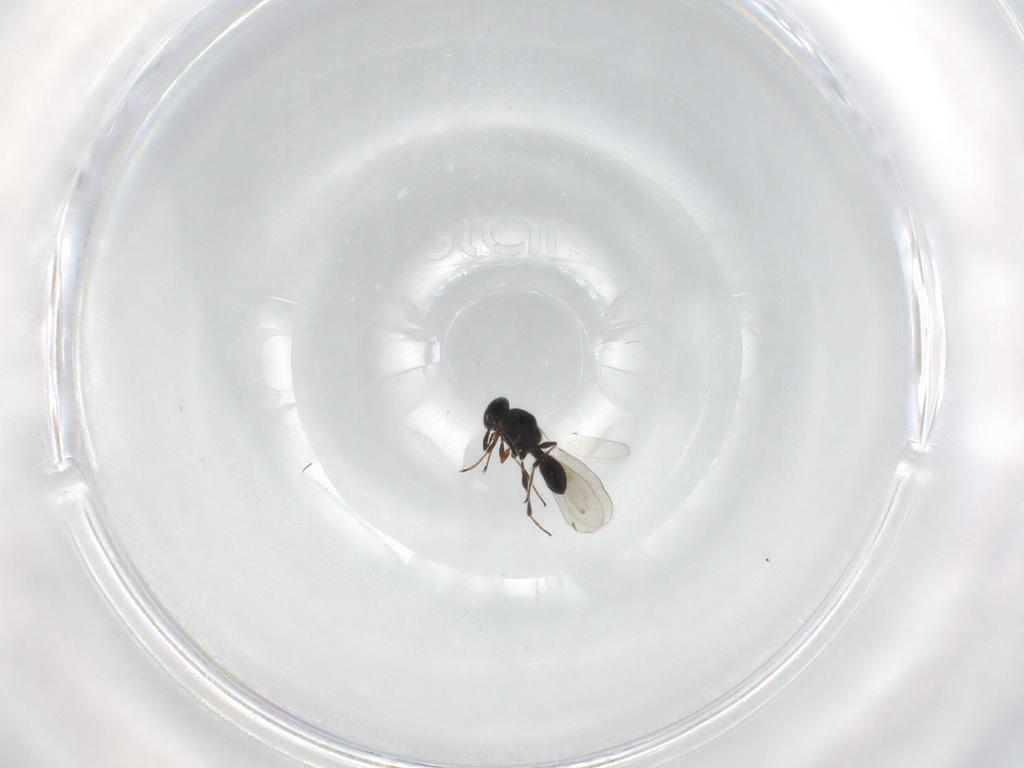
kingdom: Animalia
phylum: Arthropoda
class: Insecta
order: Hymenoptera
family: Platygastridae
